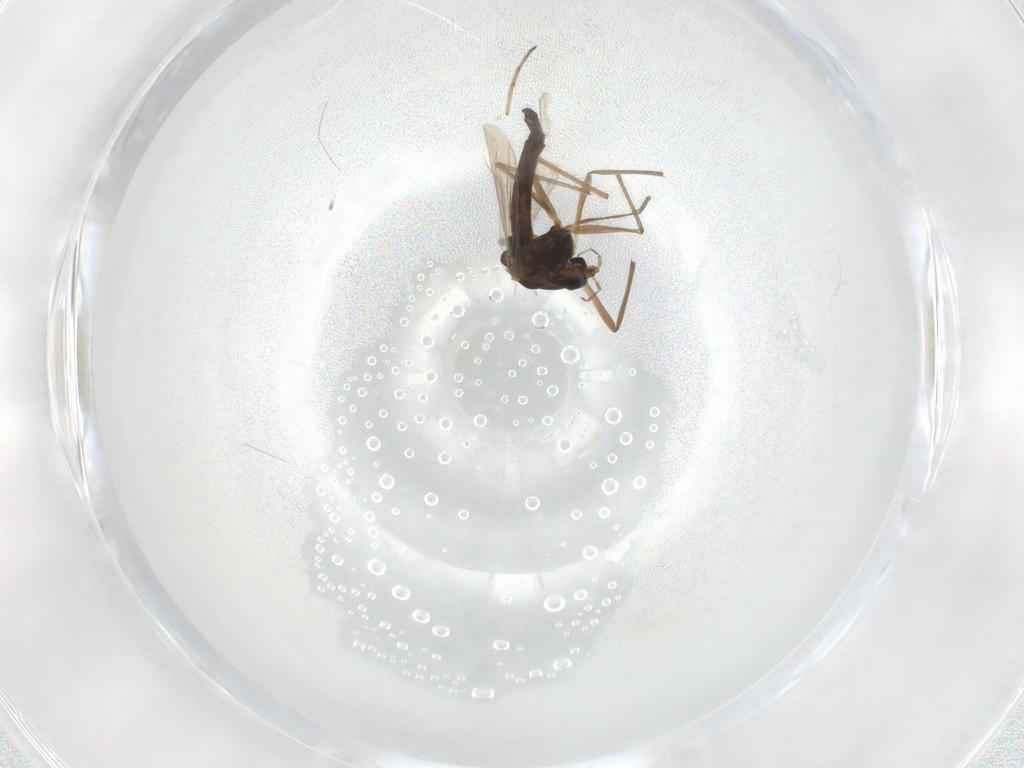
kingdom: Animalia
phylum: Arthropoda
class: Insecta
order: Diptera
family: Chironomidae
